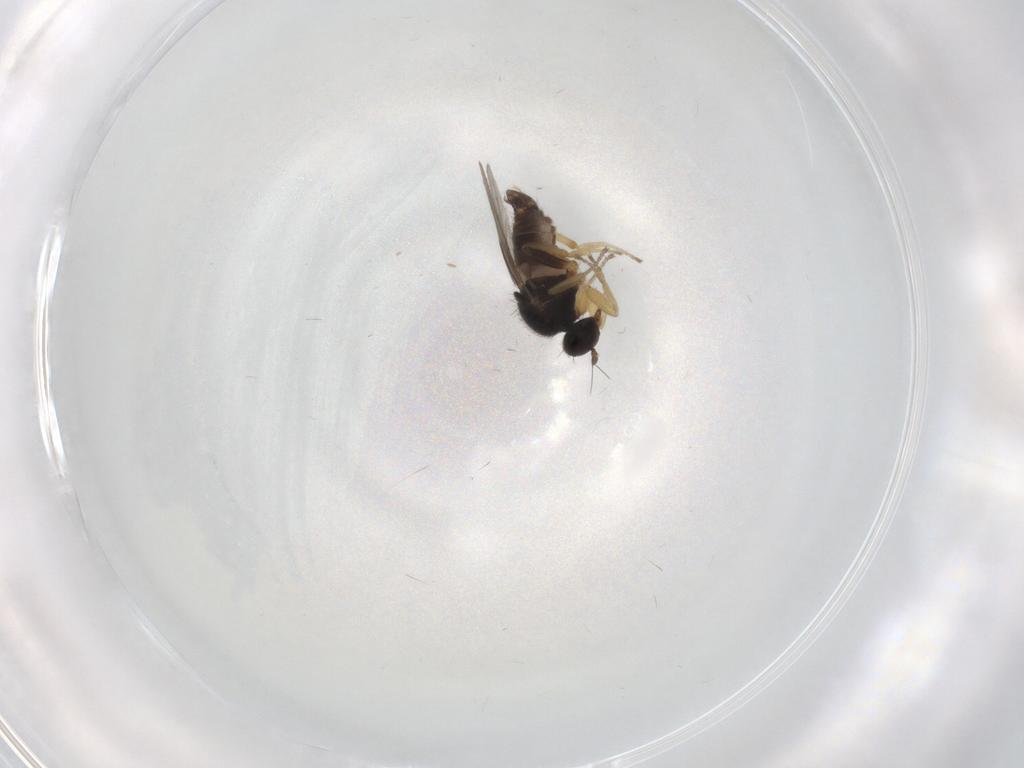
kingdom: Animalia
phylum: Arthropoda
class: Insecta
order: Diptera
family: Hybotidae
